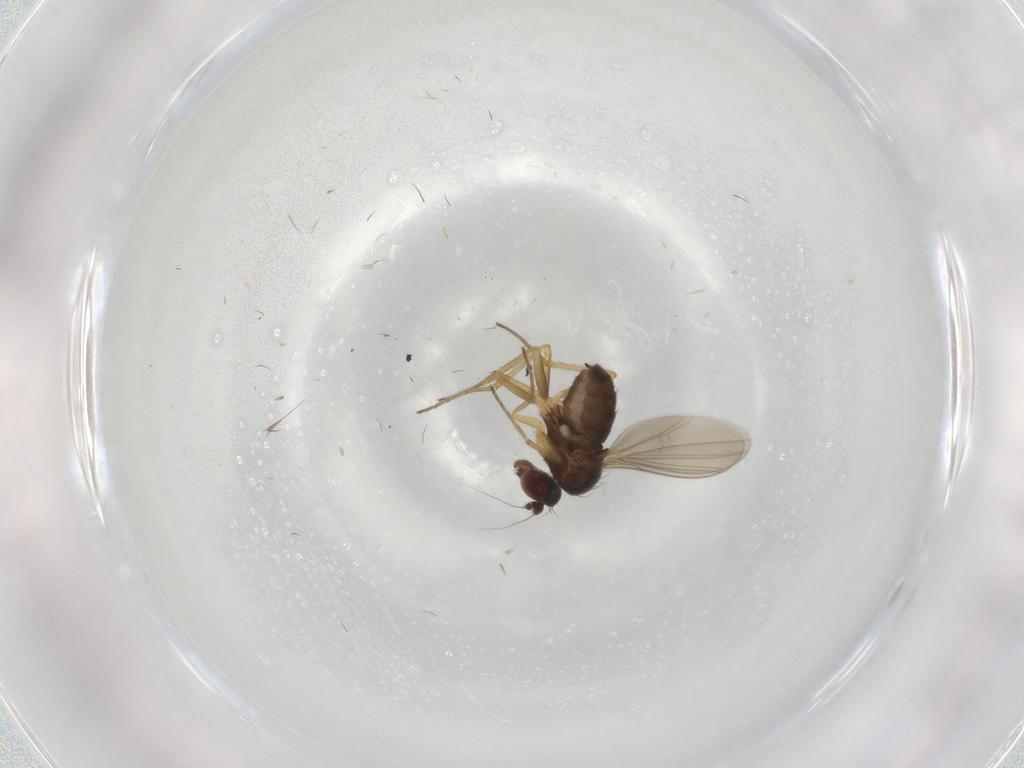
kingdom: Animalia
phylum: Arthropoda
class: Insecta
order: Diptera
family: Dolichopodidae
